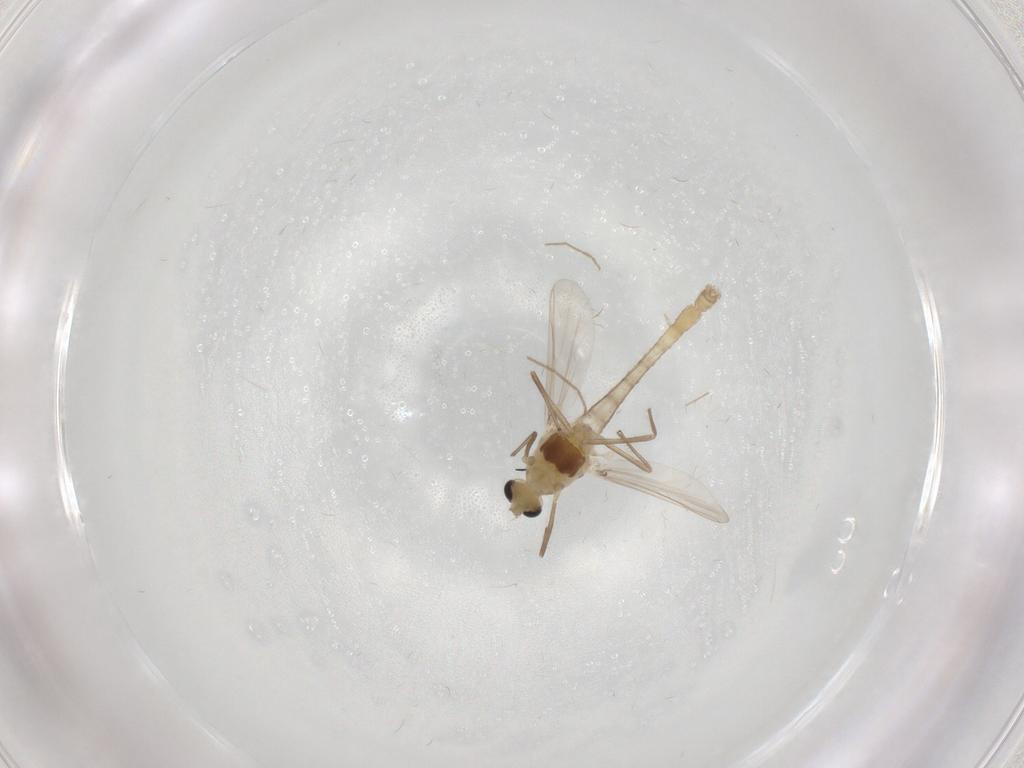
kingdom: Animalia
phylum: Arthropoda
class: Insecta
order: Diptera
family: Chironomidae
